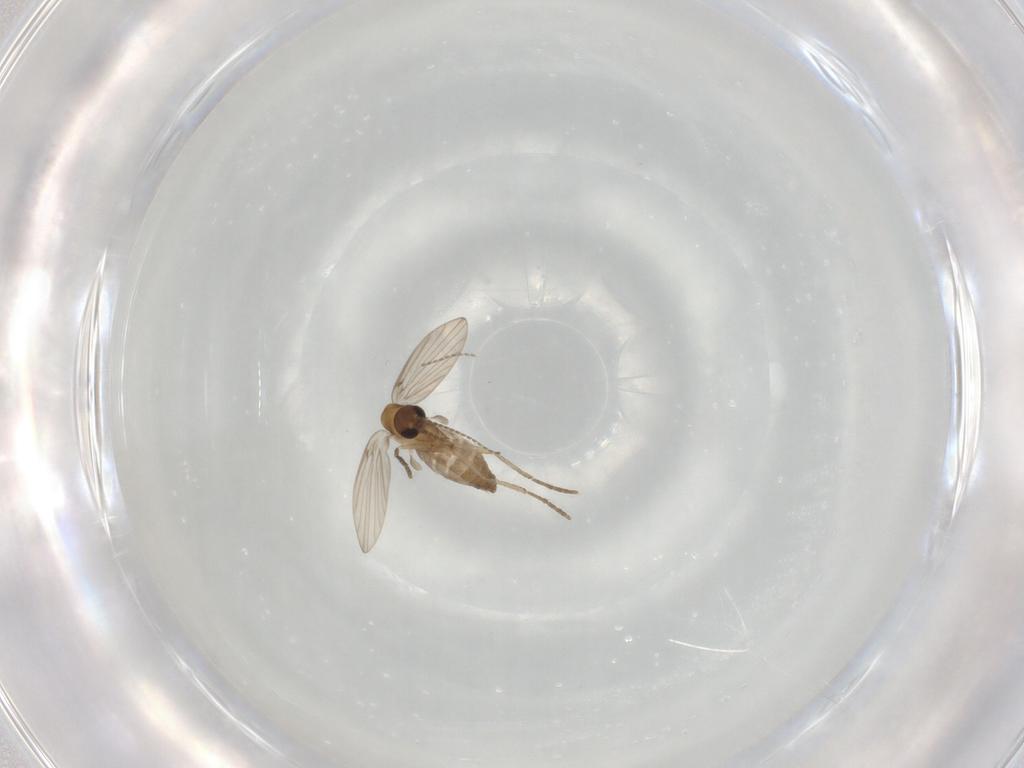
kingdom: Animalia
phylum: Arthropoda
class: Insecta
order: Diptera
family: Psychodidae
